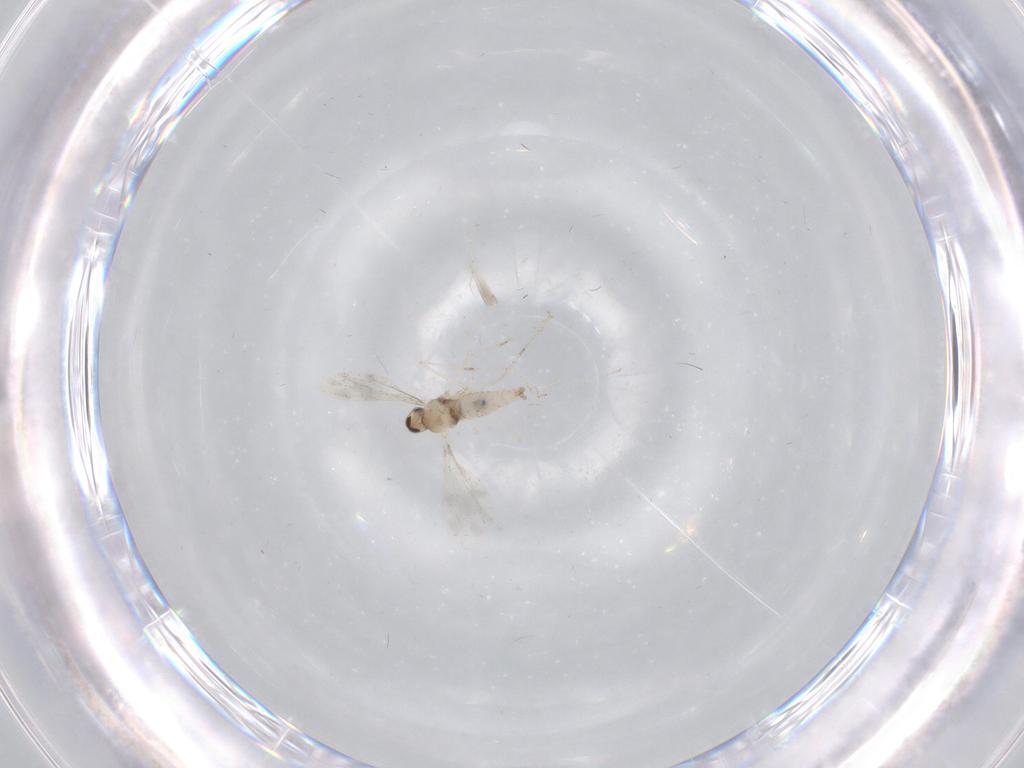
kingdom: Animalia
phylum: Arthropoda
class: Insecta
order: Diptera
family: Cecidomyiidae
